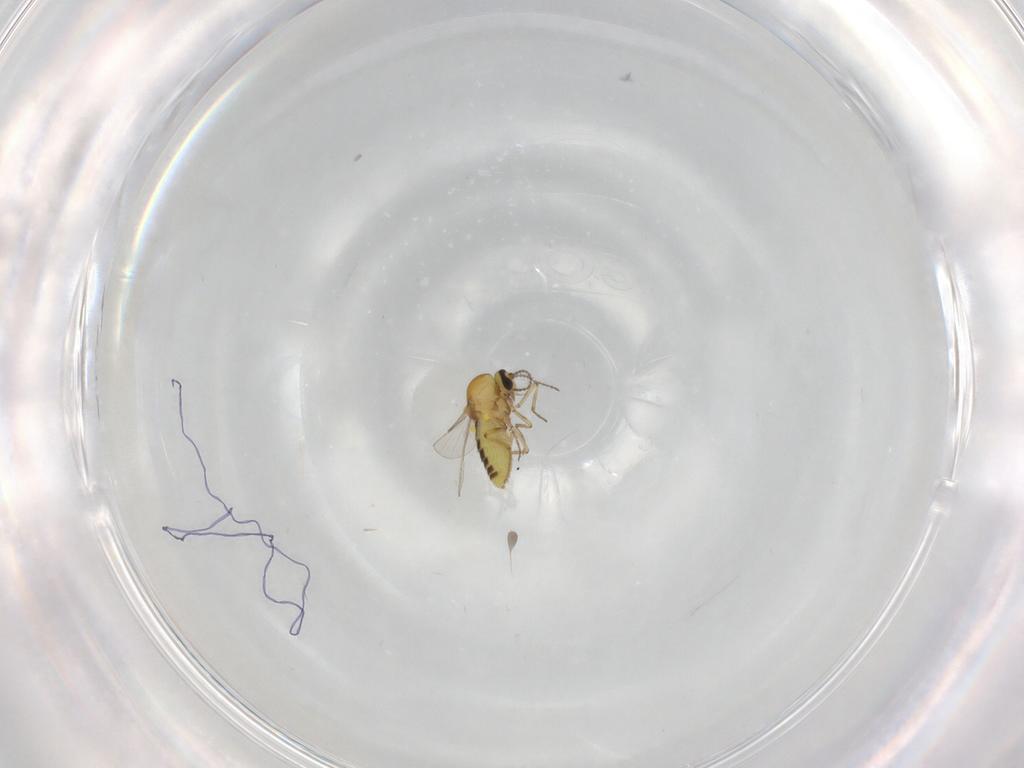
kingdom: Animalia
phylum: Arthropoda
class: Insecta
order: Diptera
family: Ceratopogonidae
